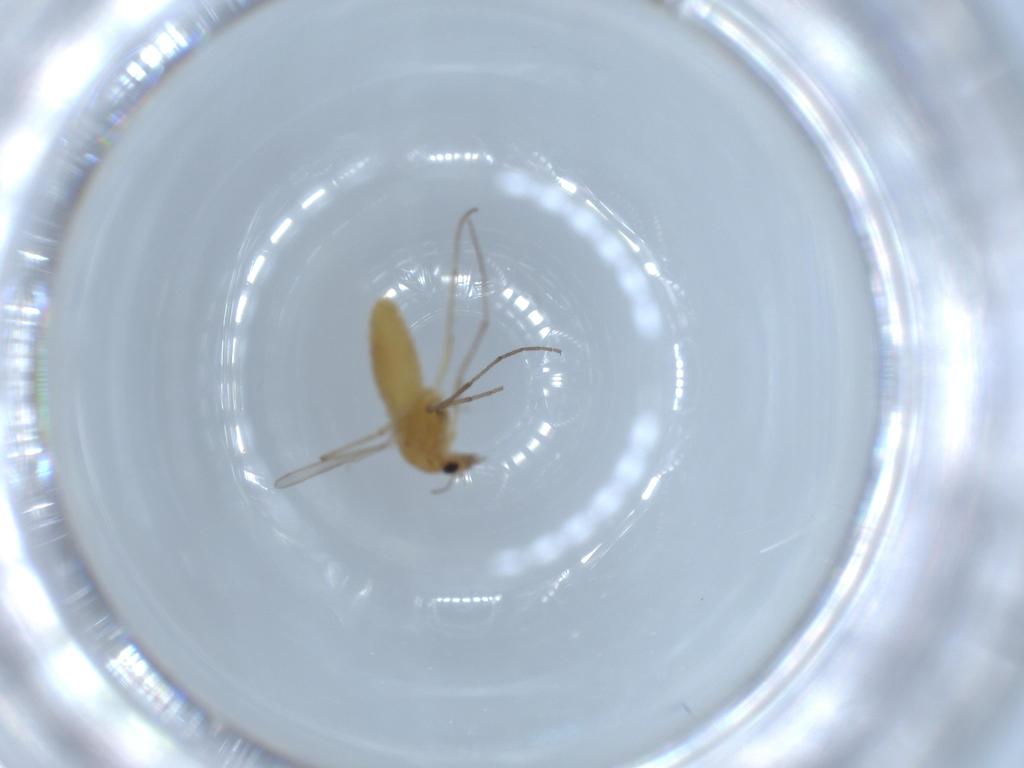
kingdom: Animalia
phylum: Arthropoda
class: Insecta
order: Diptera
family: Chironomidae
